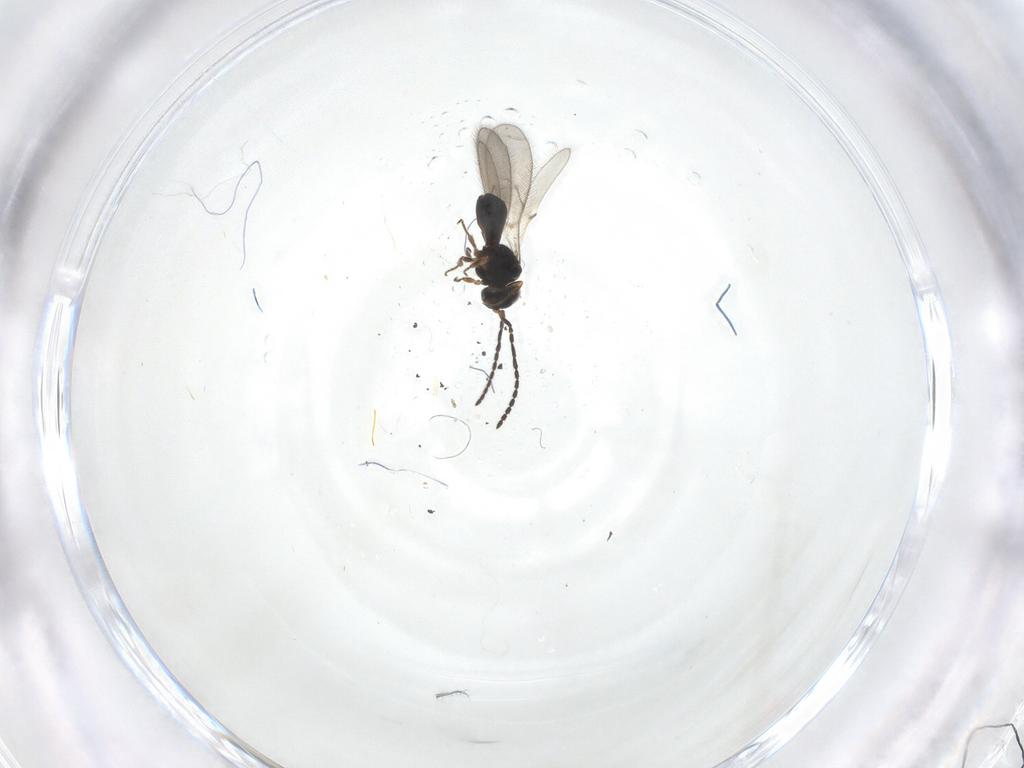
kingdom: Animalia
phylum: Arthropoda
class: Insecta
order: Hymenoptera
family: Scelionidae
